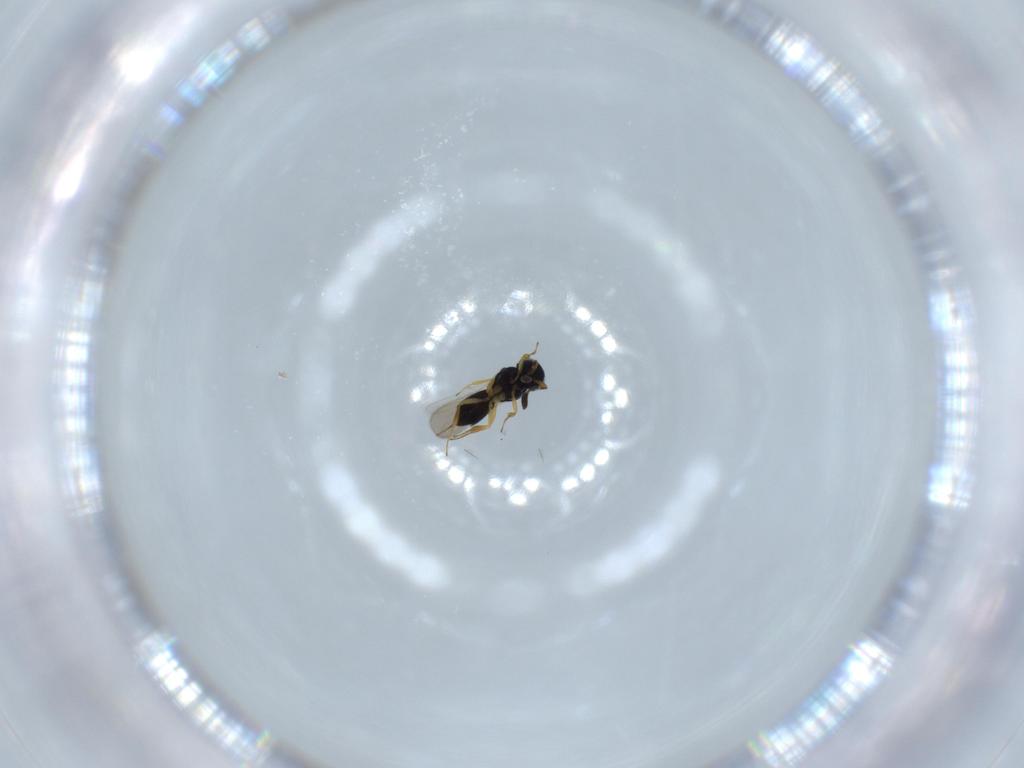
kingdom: Animalia
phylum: Arthropoda
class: Insecta
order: Hymenoptera
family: Scelionidae
